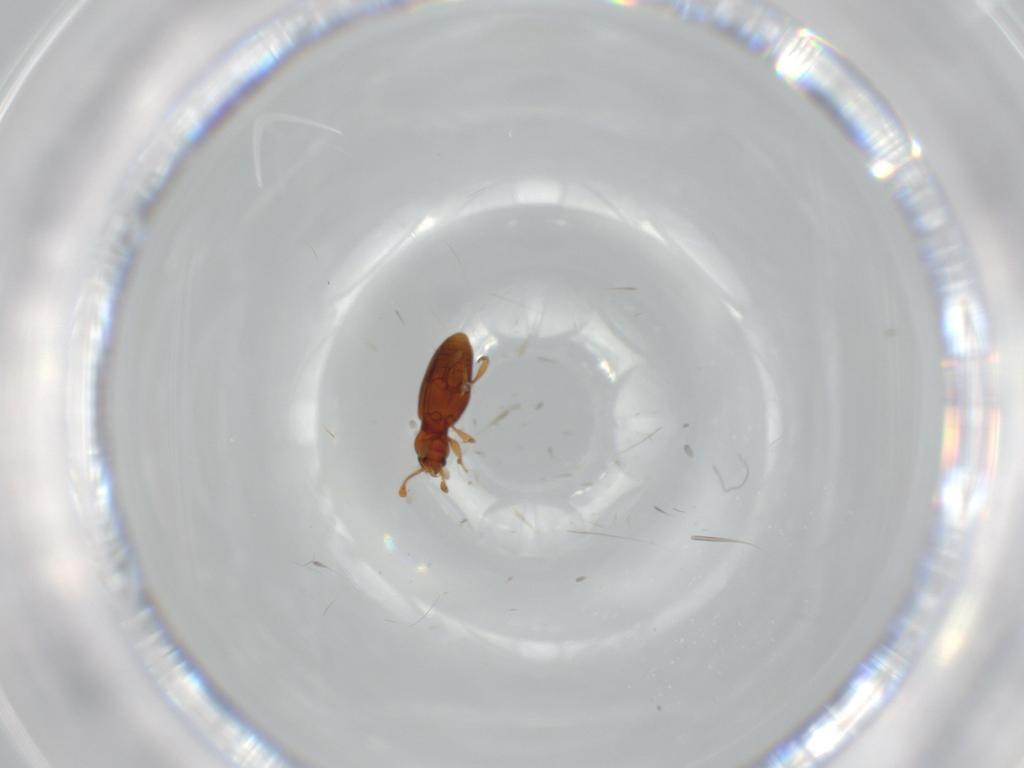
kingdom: Animalia
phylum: Arthropoda
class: Insecta
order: Coleoptera
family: Endomychidae
